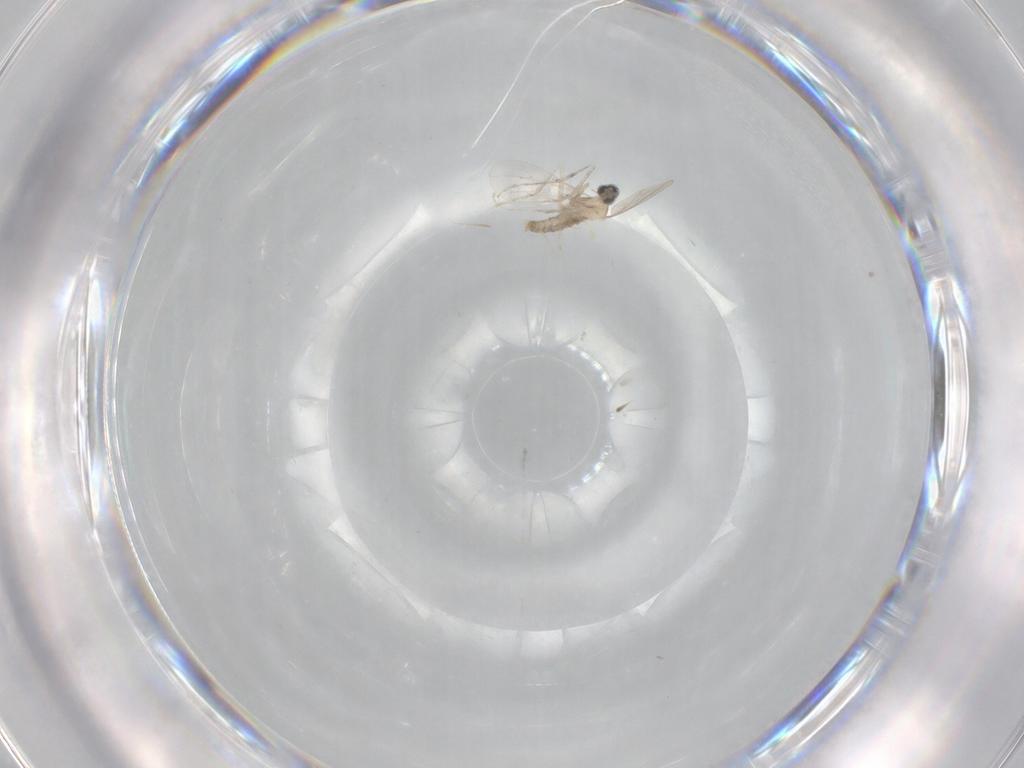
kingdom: Animalia
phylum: Arthropoda
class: Insecta
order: Diptera
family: Cecidomyiidae
